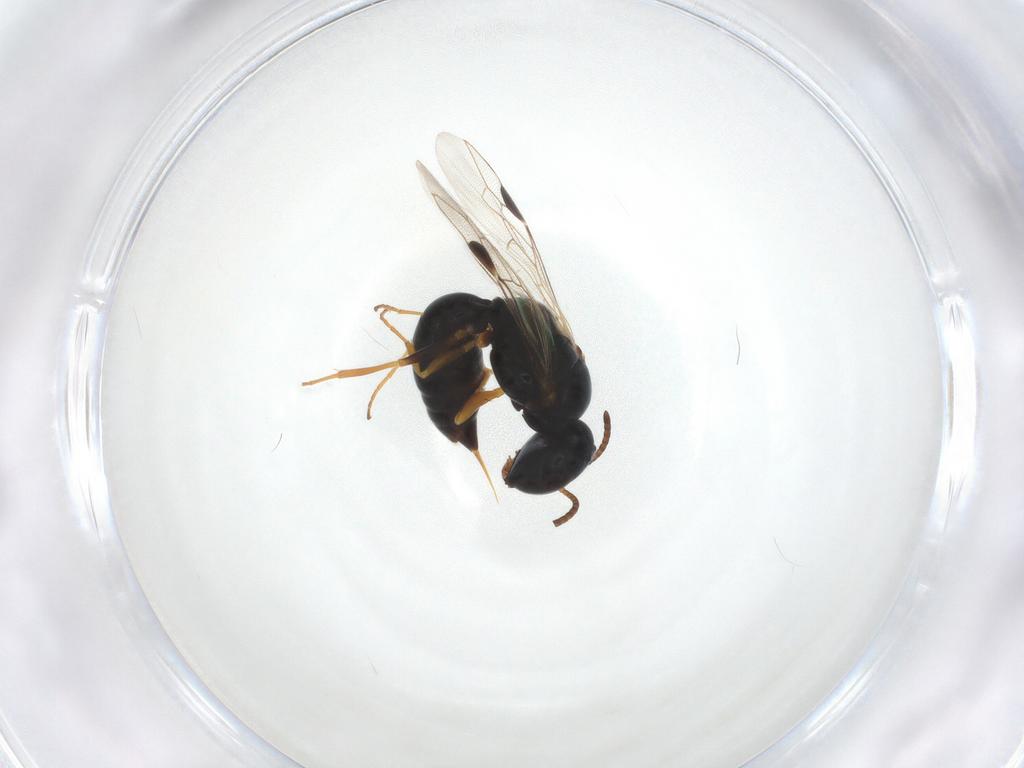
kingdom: Animalia
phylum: Arthropoda
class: Insecta
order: Hymenoptera
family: Pemphredonidae
